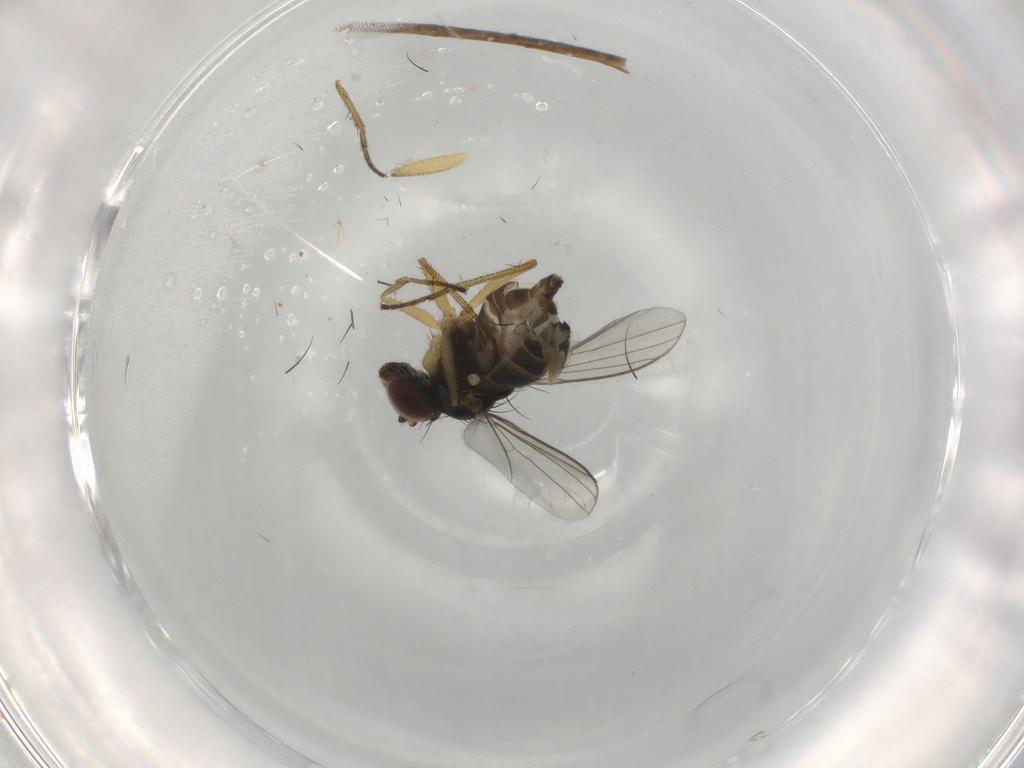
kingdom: Animalia
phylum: Arthropoda
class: Insecta
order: Diptera
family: Dolichopodidae
